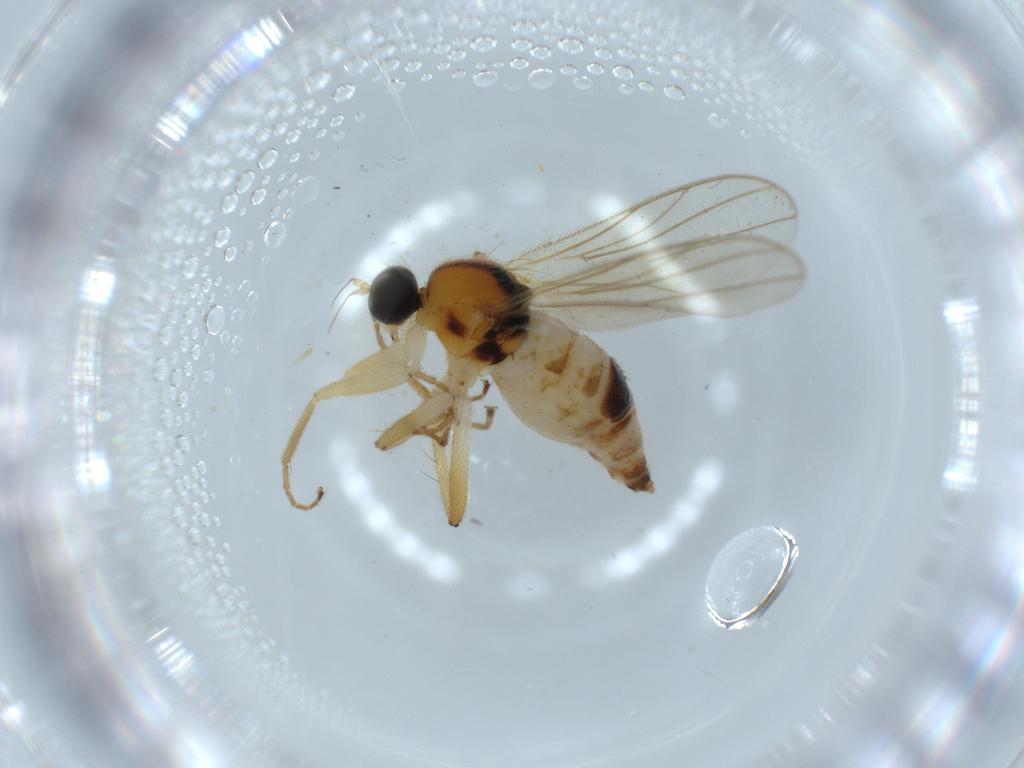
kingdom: Animalia
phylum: Arthropoda
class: Insecta
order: Diptera
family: Hybotidae
